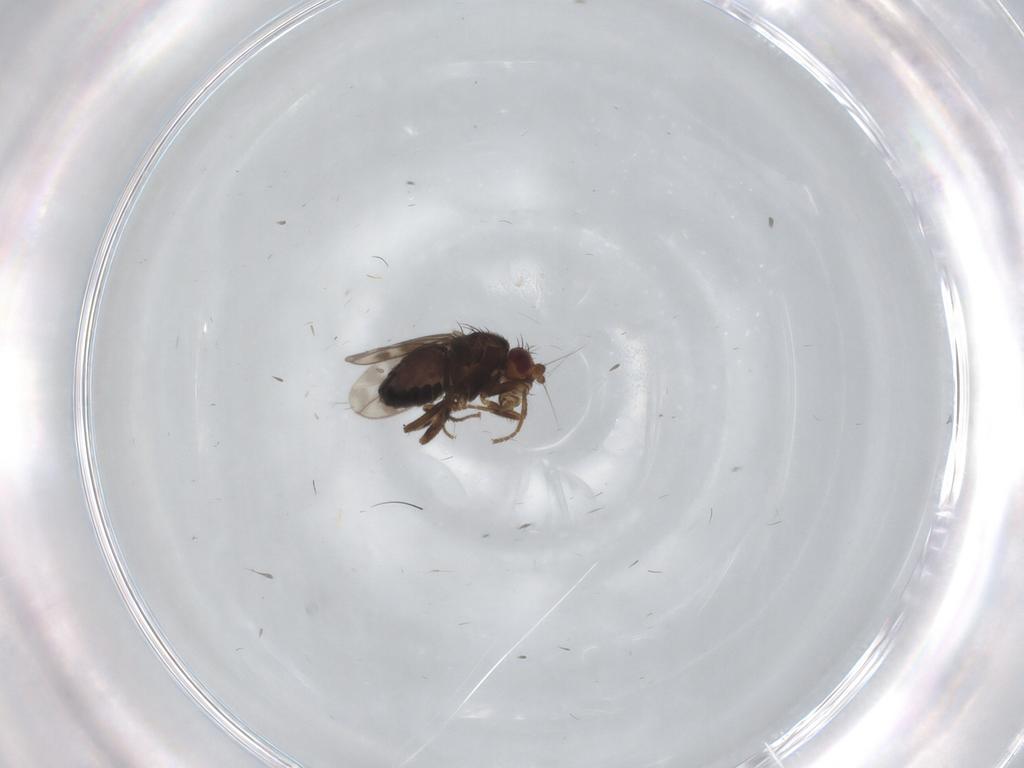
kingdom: Animalia
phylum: Arthropoda
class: Insecta
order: Diptera
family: Sphaeroceridae
